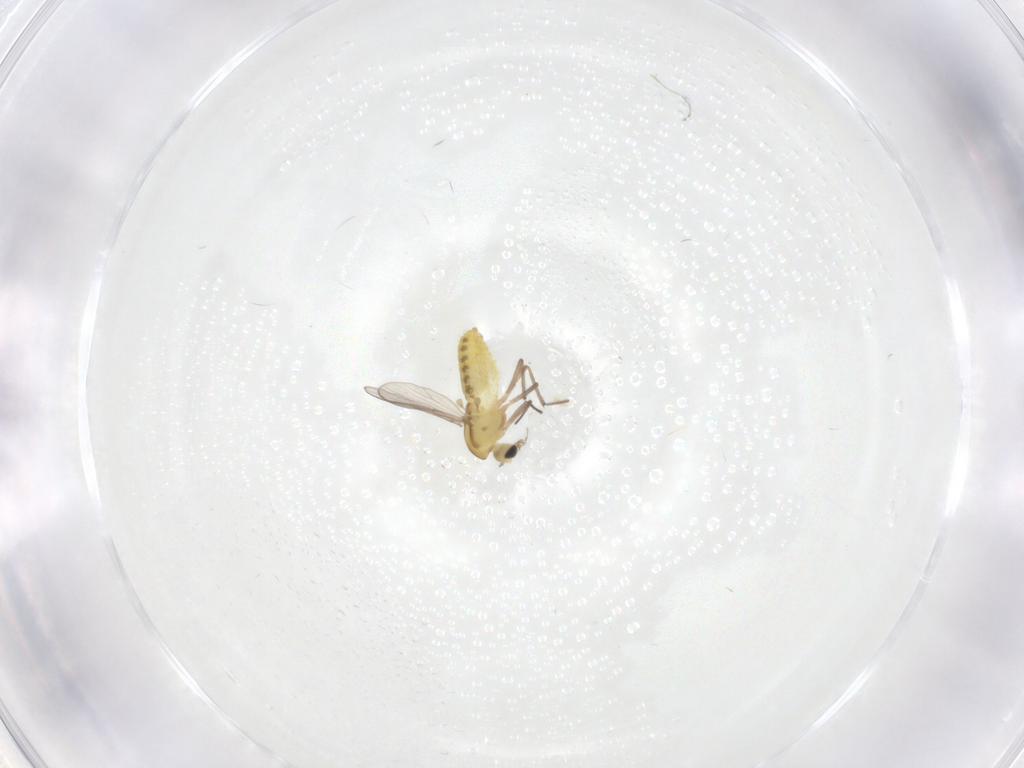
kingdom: Animalia
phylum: Arthropoda
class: Insecta
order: Diptera
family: Chironomidae
